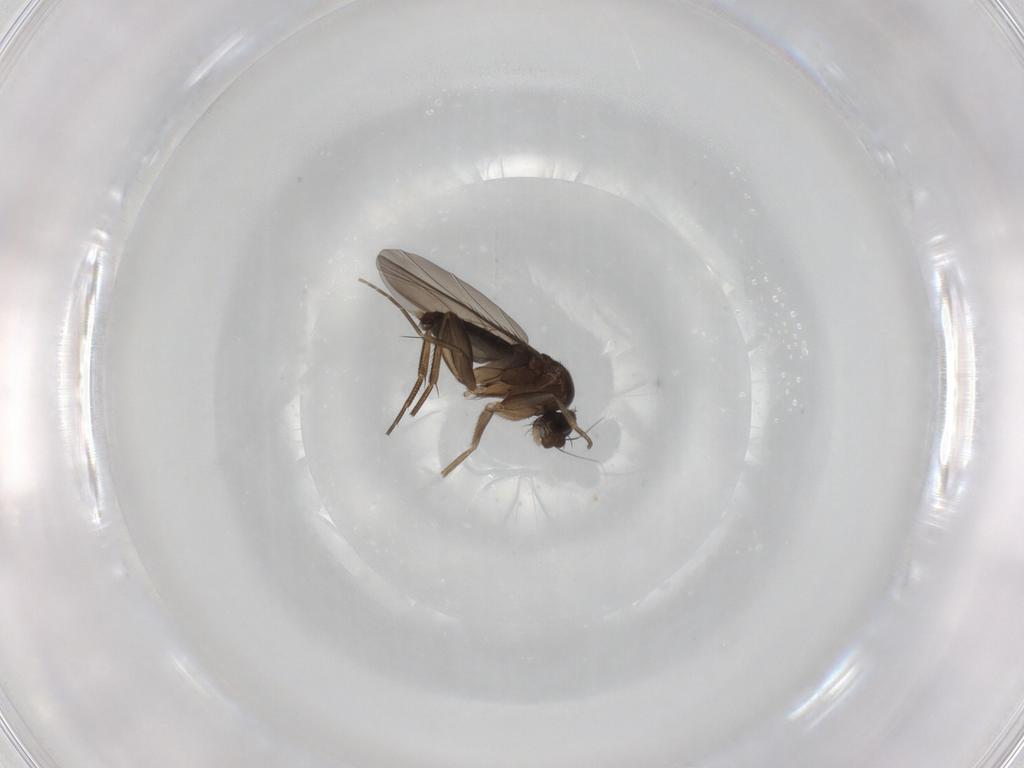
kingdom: Animalia
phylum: Arthropoda
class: Insecta
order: Diptera
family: Phoridae
